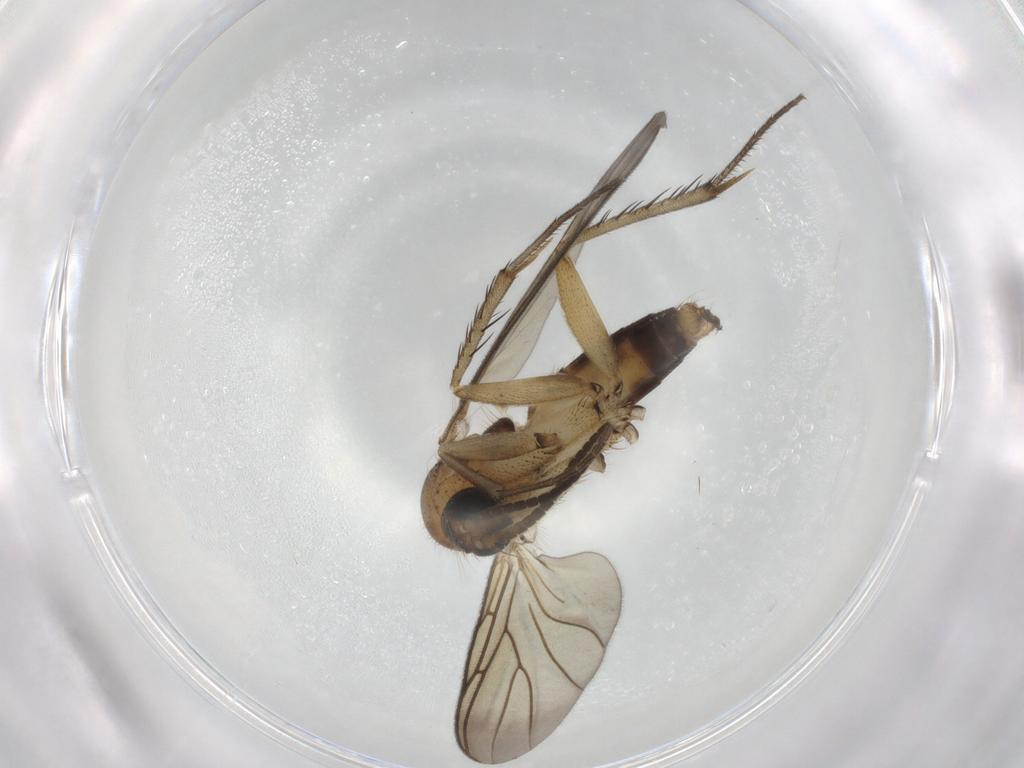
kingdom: Animalia
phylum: Arthropoda
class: Insecta
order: Diptera
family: Mycetophilidae
